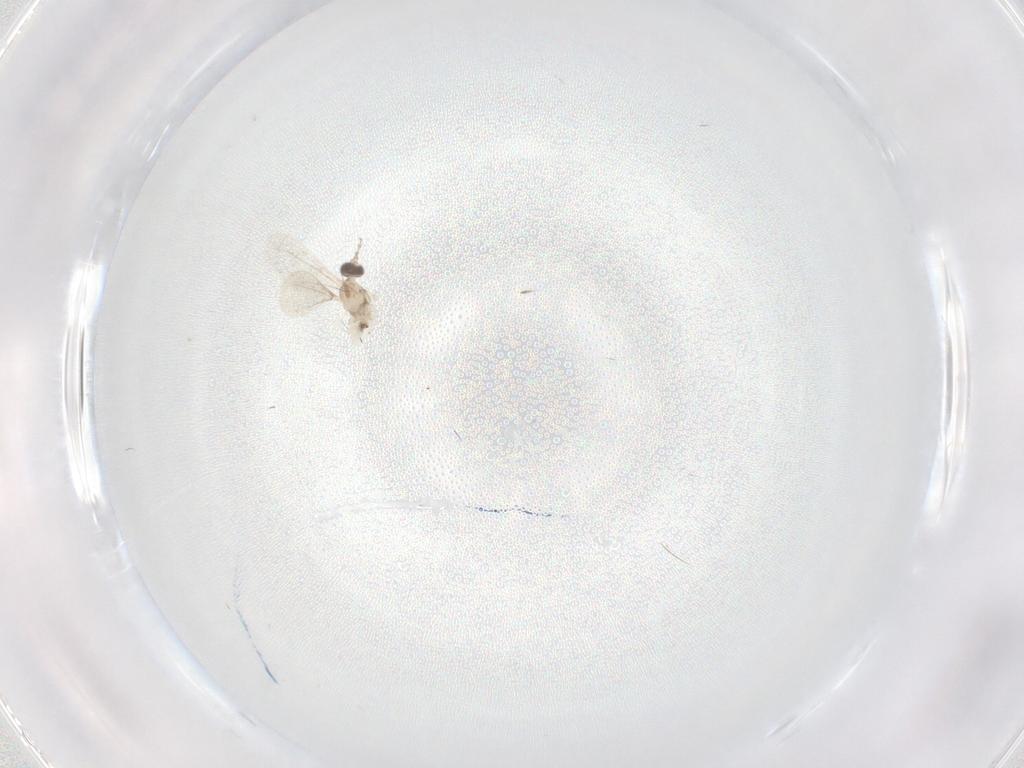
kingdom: Animalia
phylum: Arthropoda
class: Insecta
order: Diptera
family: Cecidomyiidae
